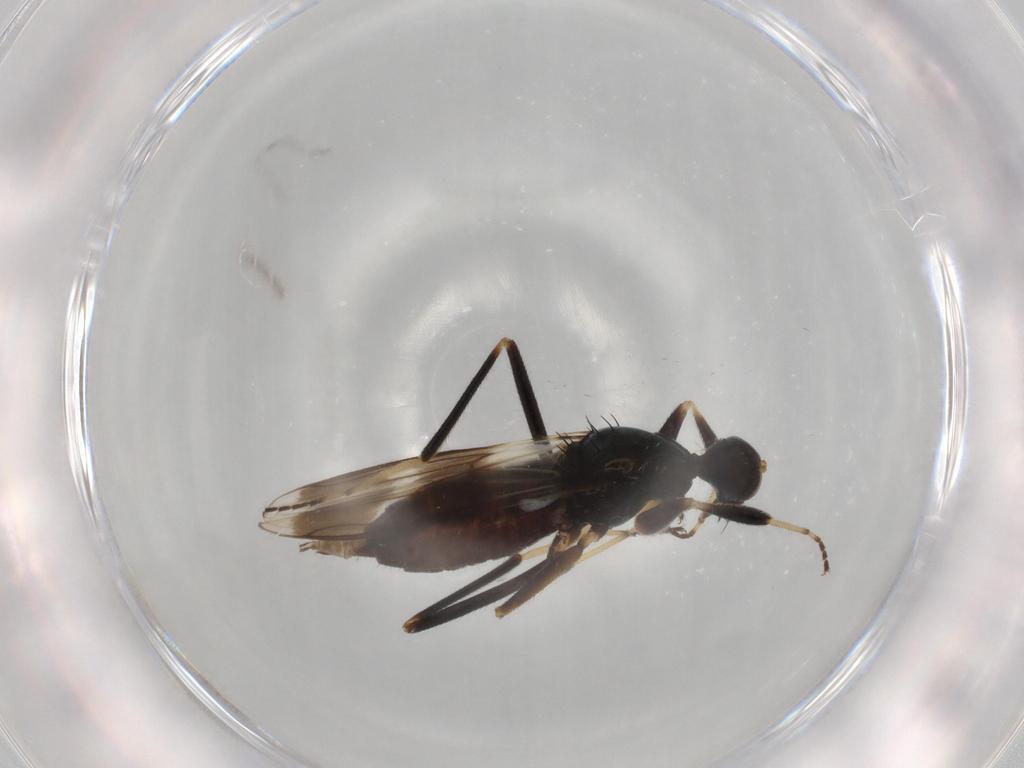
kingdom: Animalia
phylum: Arthropoda
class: Insecta
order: Diptera
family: Hybotidae
